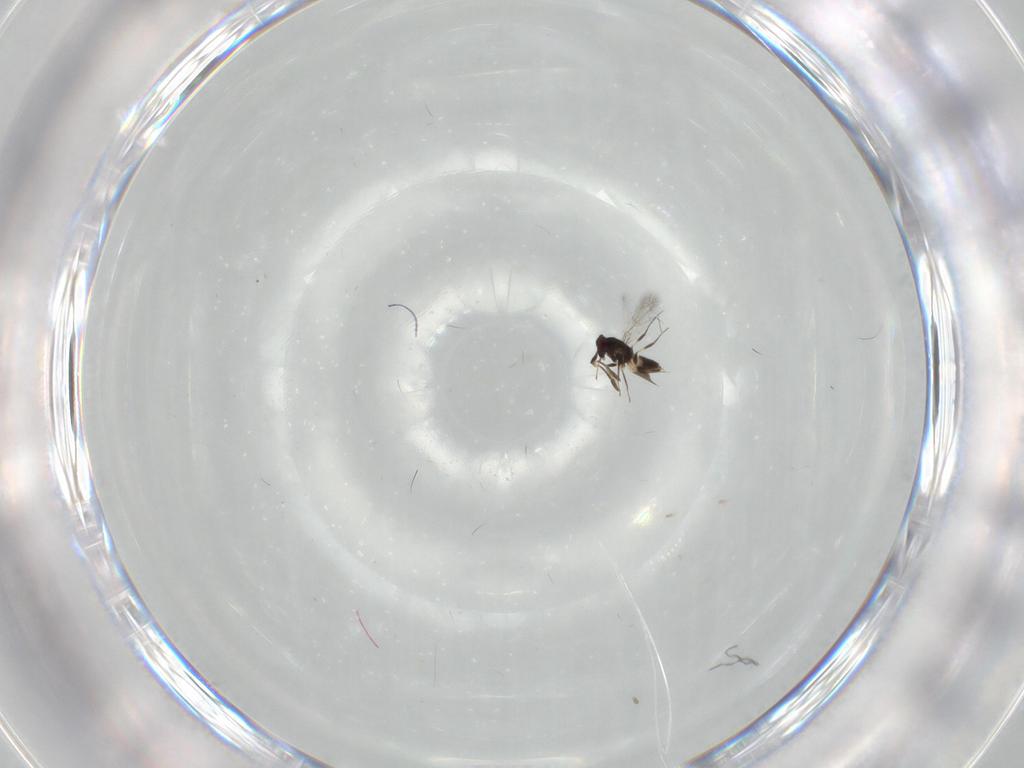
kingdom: Animalia
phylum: Arthropoda
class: Insecta
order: Hymenoptera
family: Mymaridae
